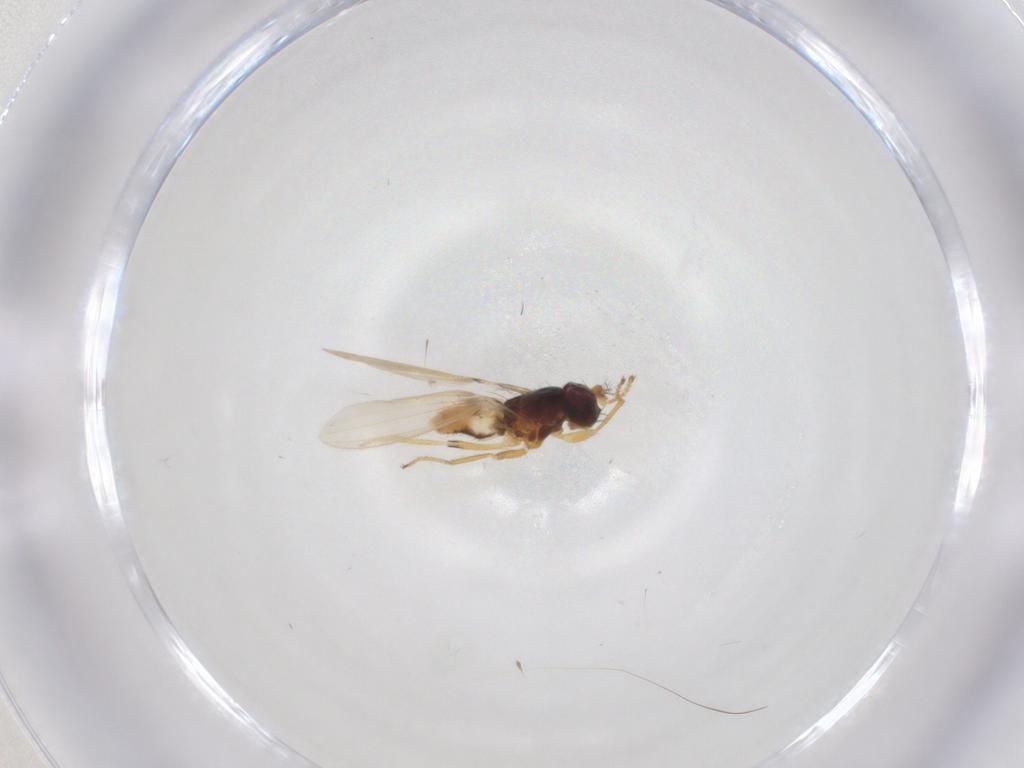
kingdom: Animalia
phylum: Arthropoda
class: Insecta
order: Diptera
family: Periscelididae
